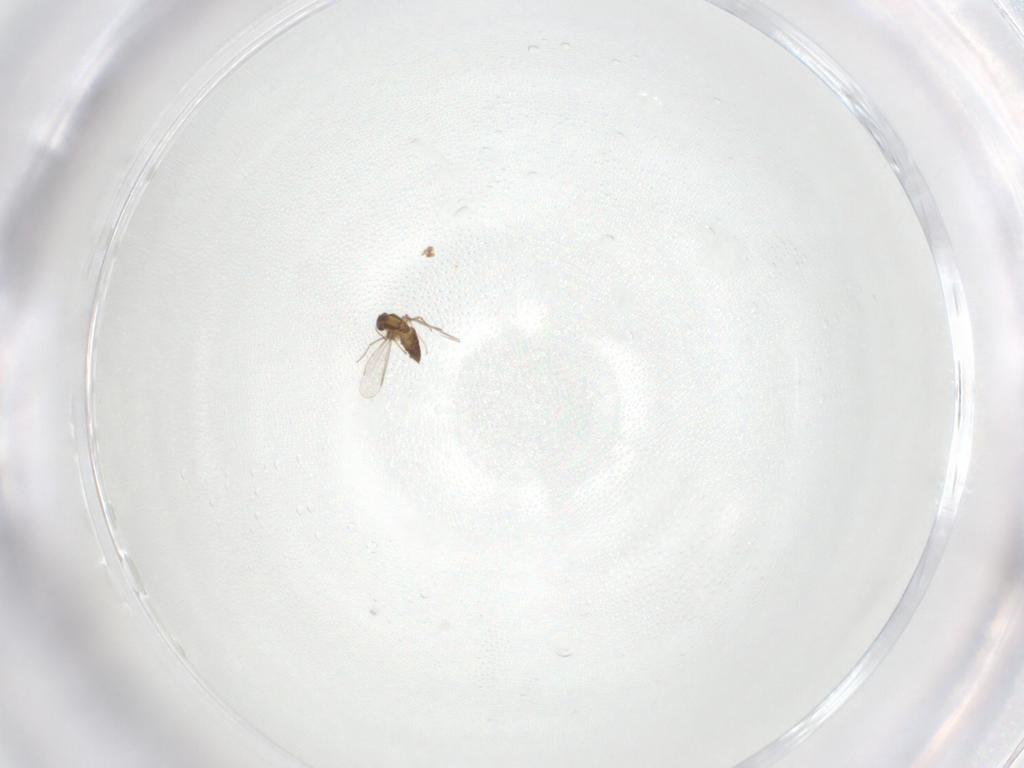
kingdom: Animalia
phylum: Arthropoda
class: Insecta
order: Diptera
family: Chironomidae
